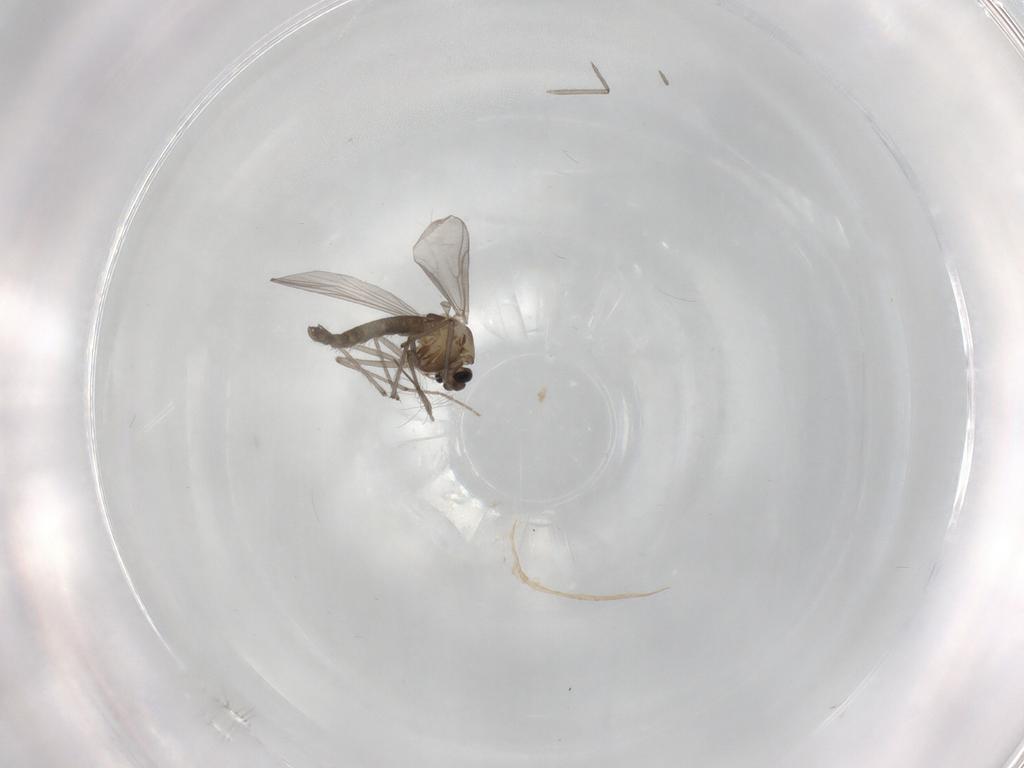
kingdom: Animalia
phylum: Arthropoda
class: Insecta
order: Diptera
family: Chironomidae
